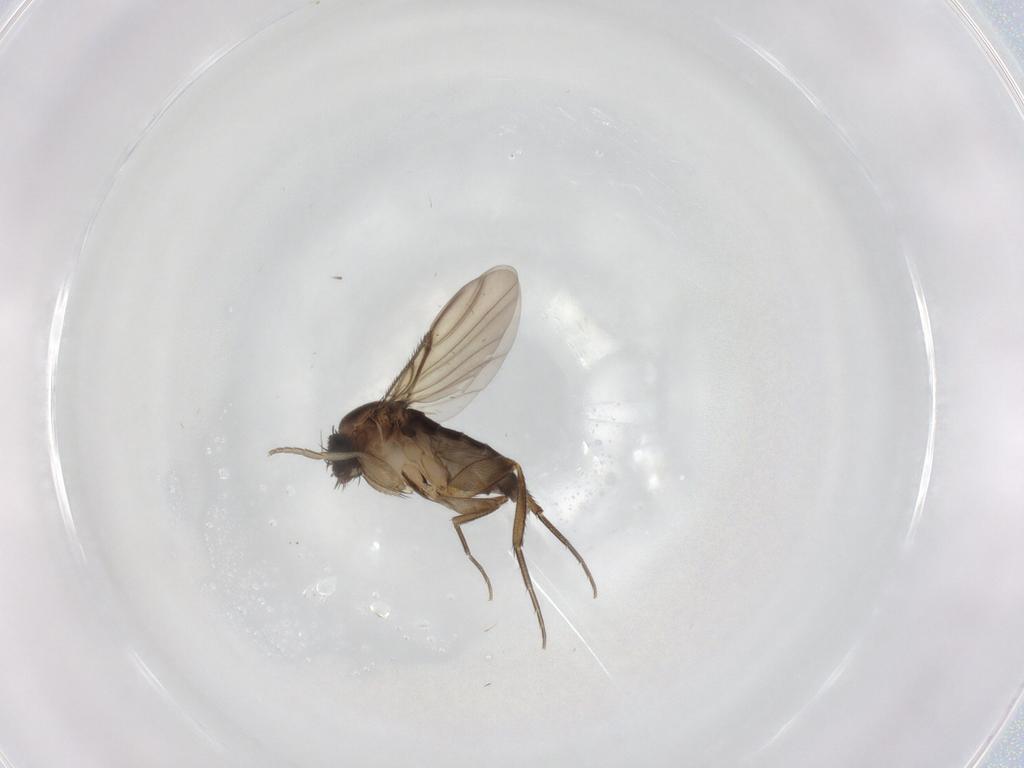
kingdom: Animalia
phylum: Arthropoda
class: Insecta
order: Diptera
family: Phoridae
